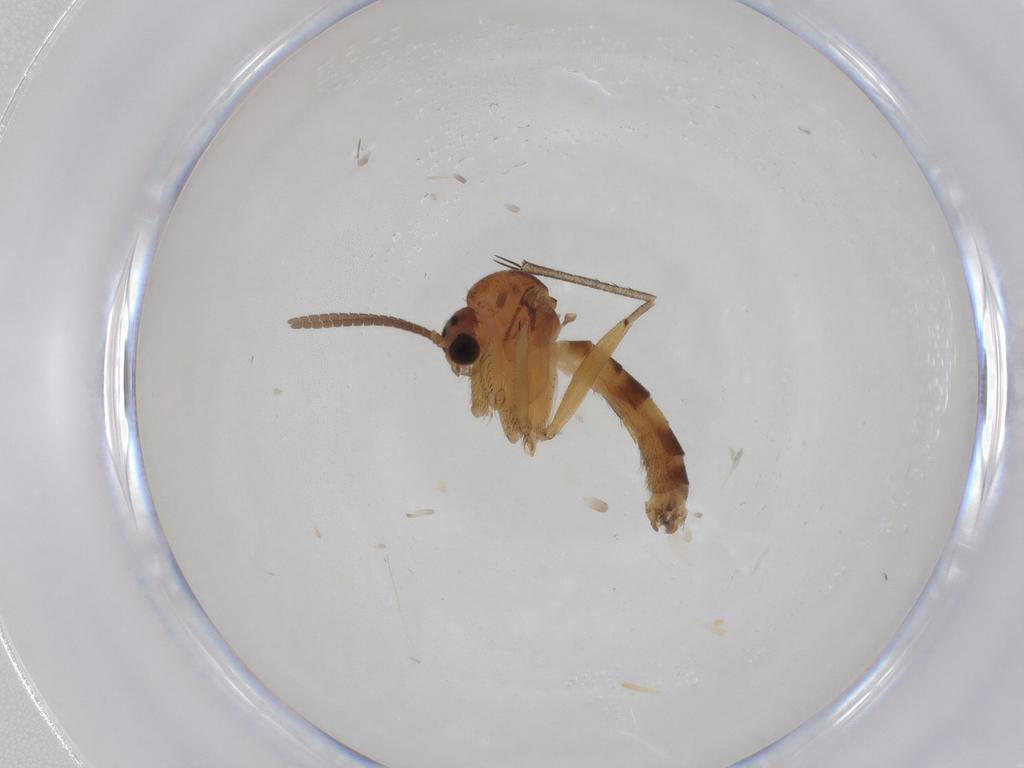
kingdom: Animalia
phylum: Arthropoda
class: Insecta
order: Diptera
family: Mycetophilidae
